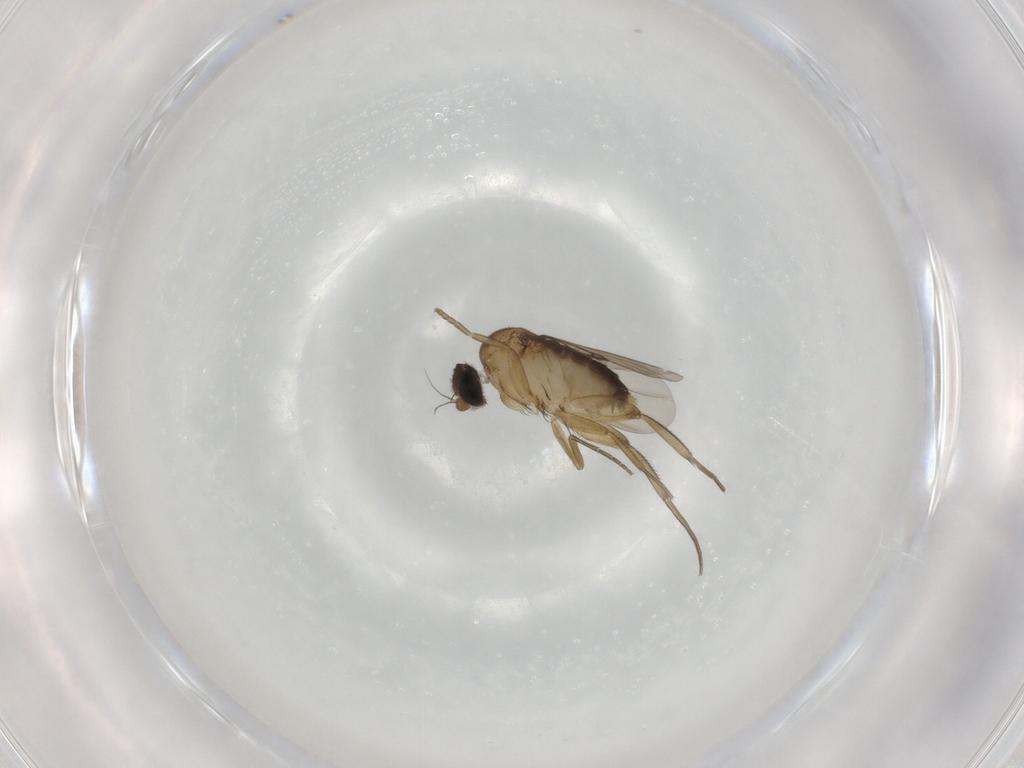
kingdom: Animalia
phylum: Arthropoda
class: Insecta
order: Diptera
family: Phoridae
